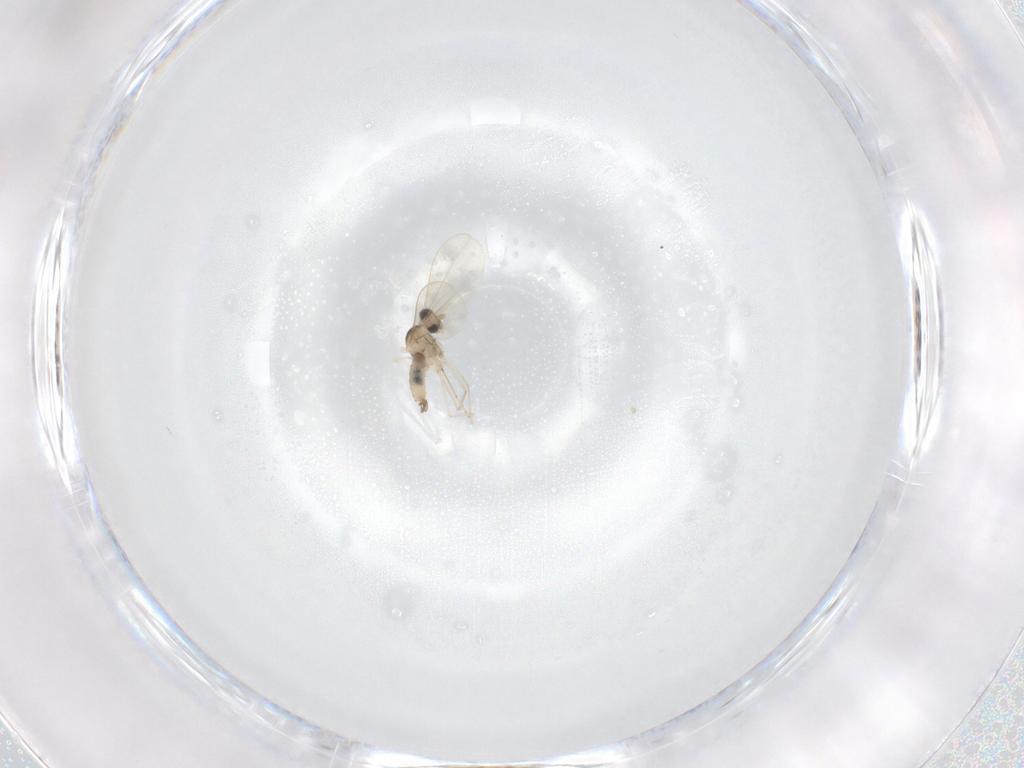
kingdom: Animalia
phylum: Arthropoda
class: Insecta
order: Diptera
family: Cecidomyiidae
